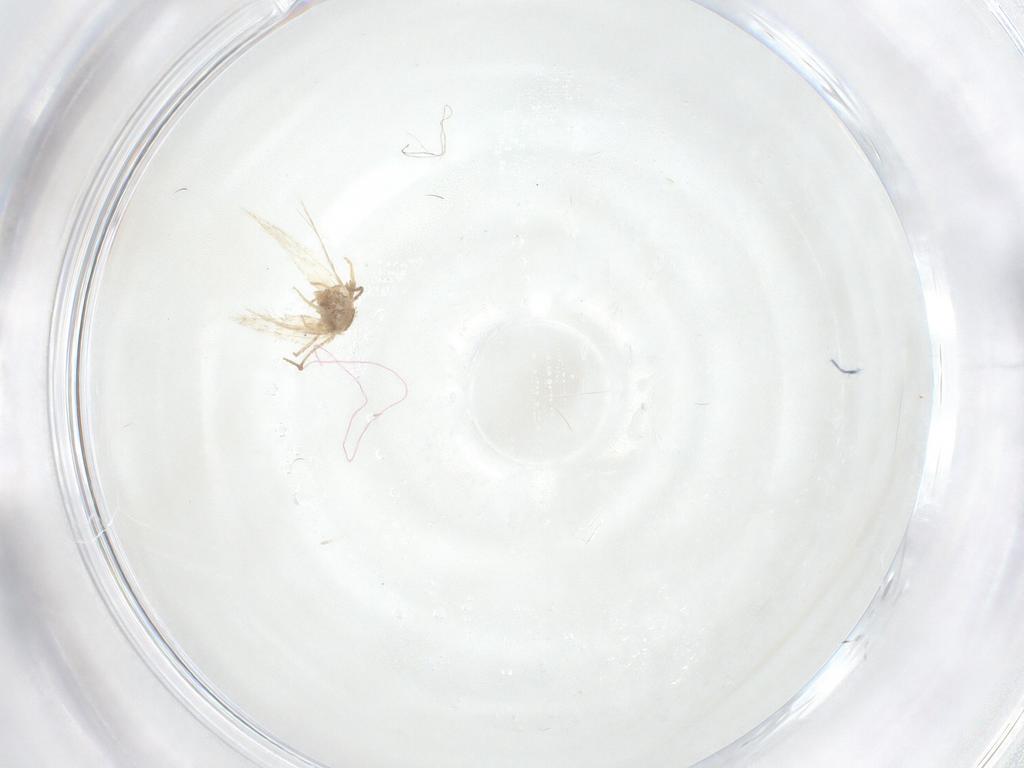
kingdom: Animalia
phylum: Arthropoda
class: Insecta
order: Lepidoptera
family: Nepticulidae
